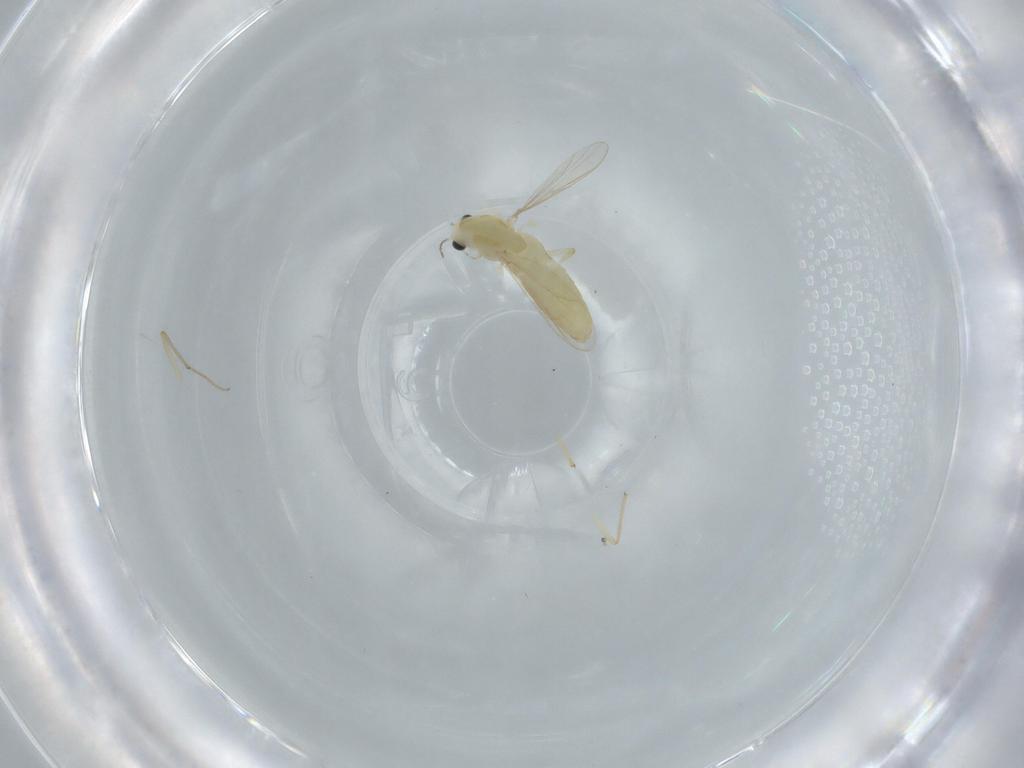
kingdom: Animalia
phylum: Arthropoda
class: Insecta
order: Diptera
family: Chironomidae
